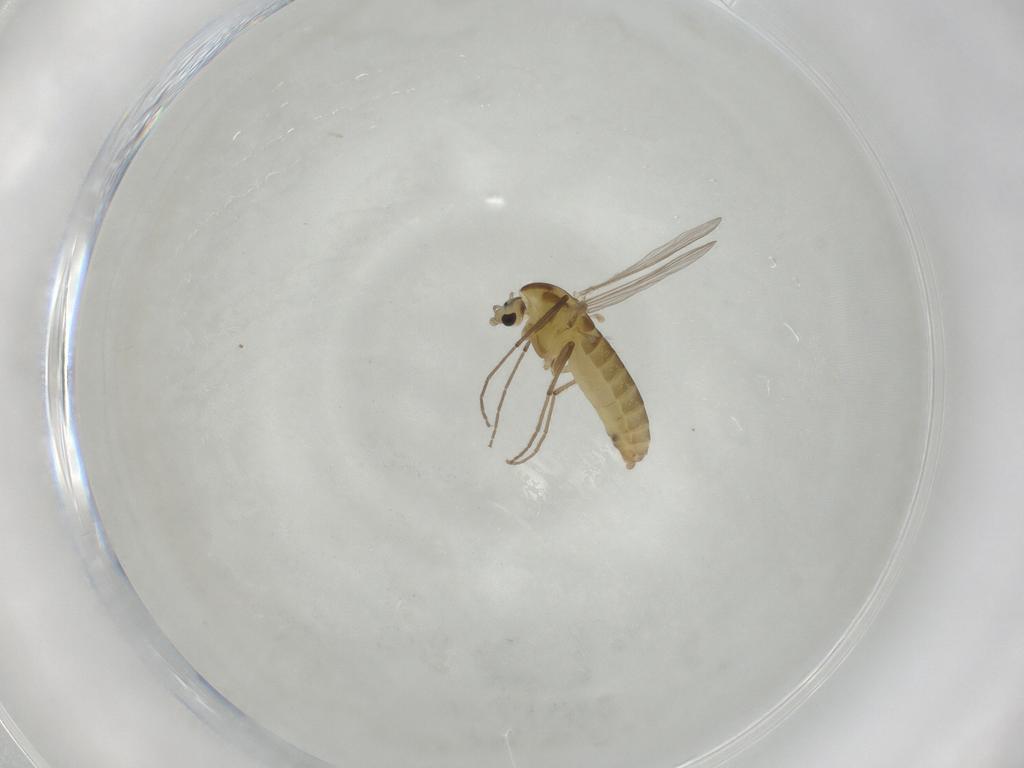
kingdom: Animalia
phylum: Arthropoda
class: Insecta
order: Diptera
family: Chironomidae
